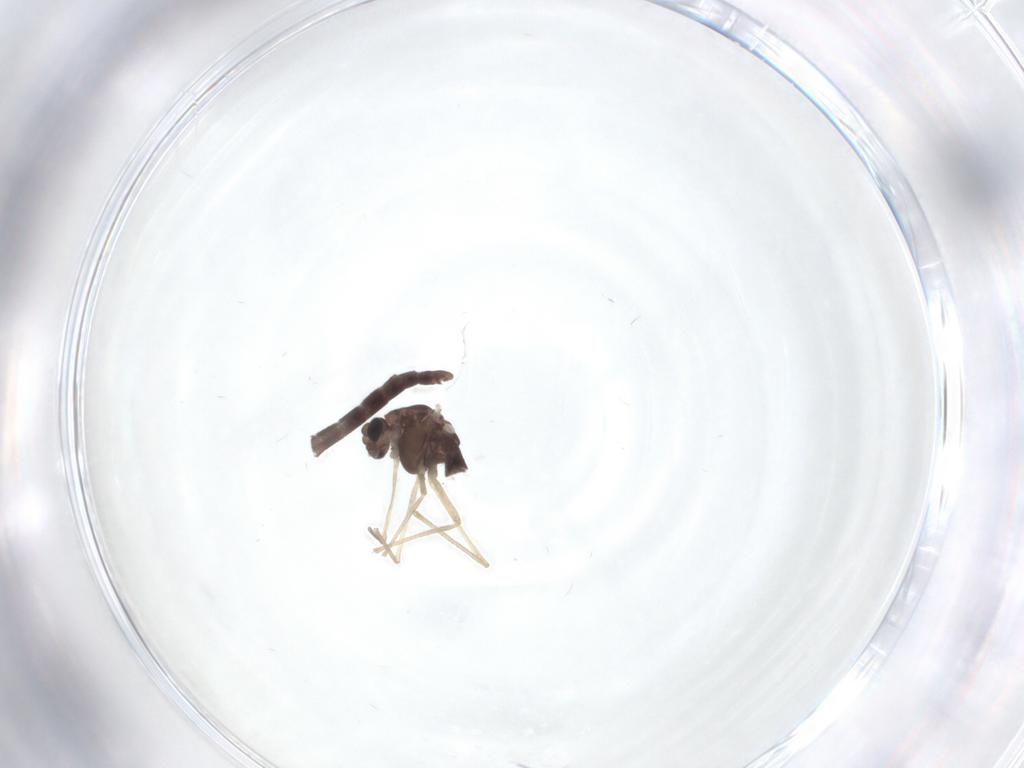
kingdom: Animalia
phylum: Arthropoda
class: Insecta
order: Diptera
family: Chironomidae
